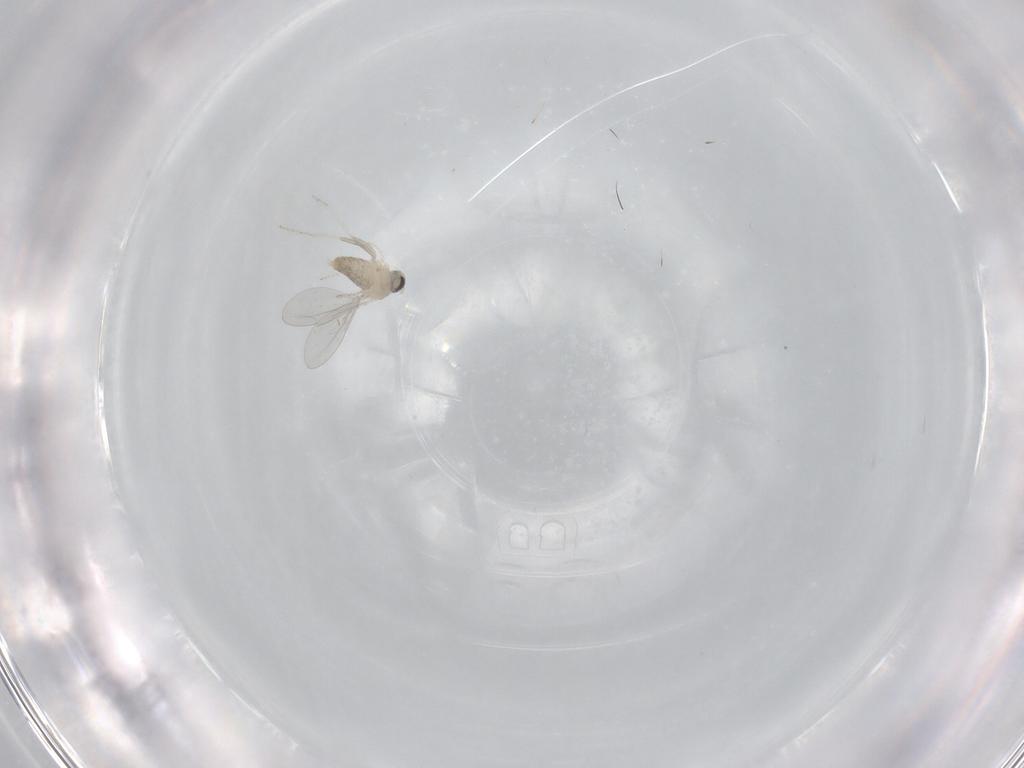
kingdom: Animalia
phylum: Arthropoda
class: Insecta
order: Diptera
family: Cecidomyiidae
